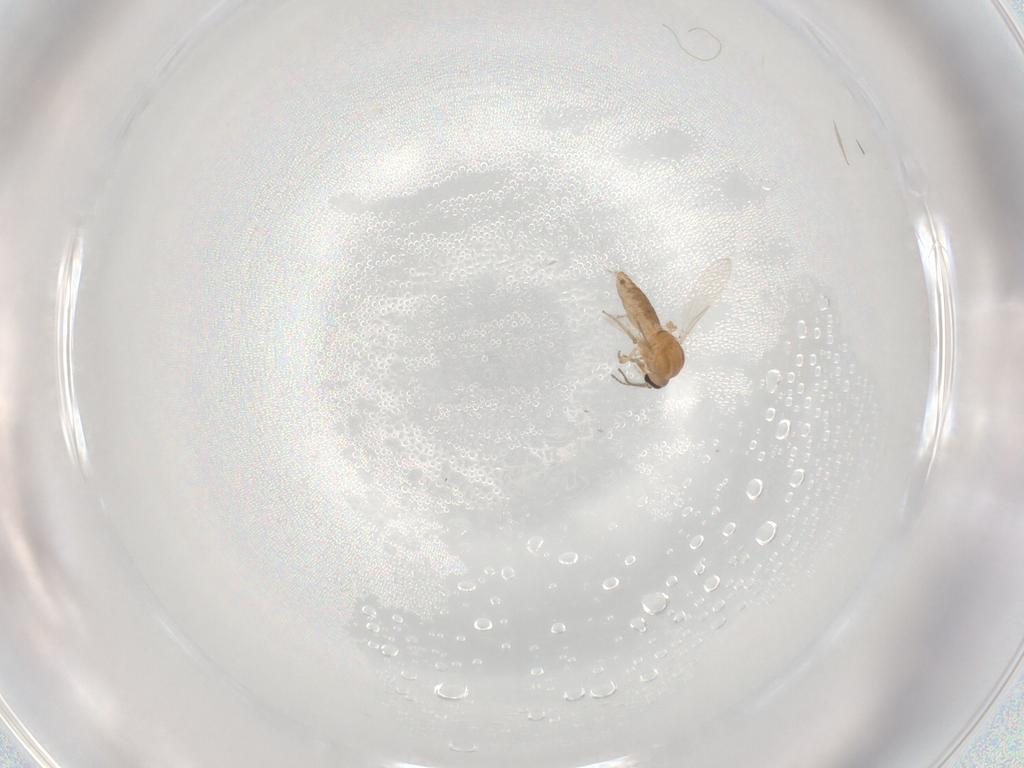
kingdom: Animalia
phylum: Arthropoda
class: Insecta
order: Diptera
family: Ceratopogonidae
